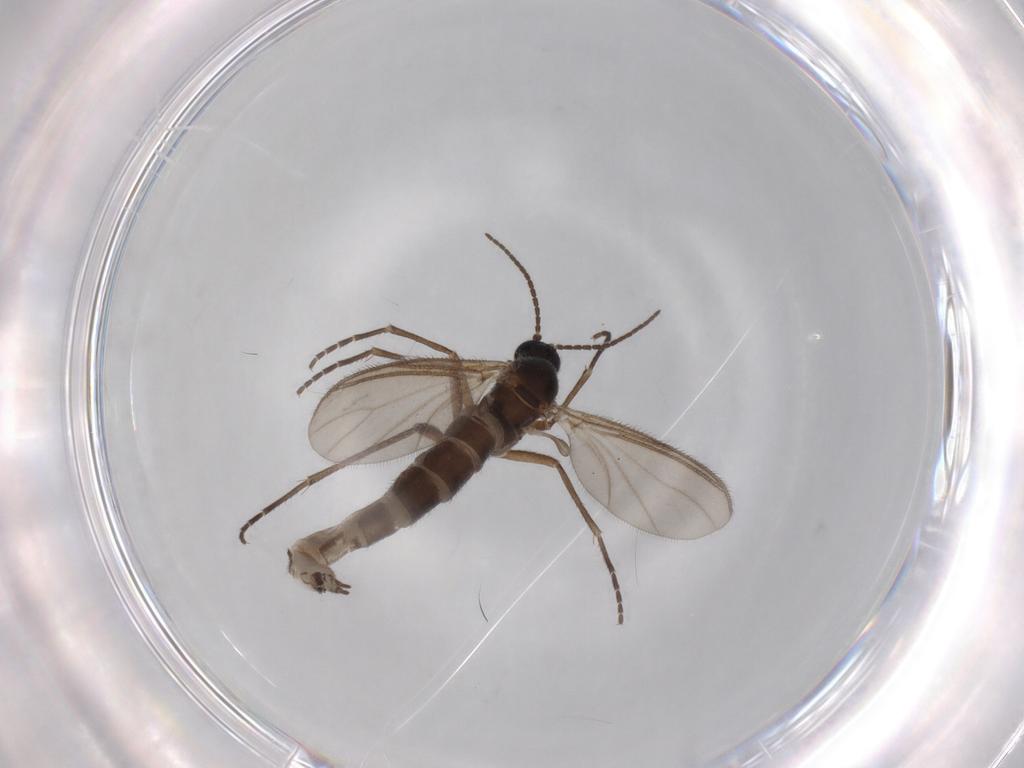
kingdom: Animalia
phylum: Arthropoda
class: Insecta
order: Diptera
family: Sciaridae
